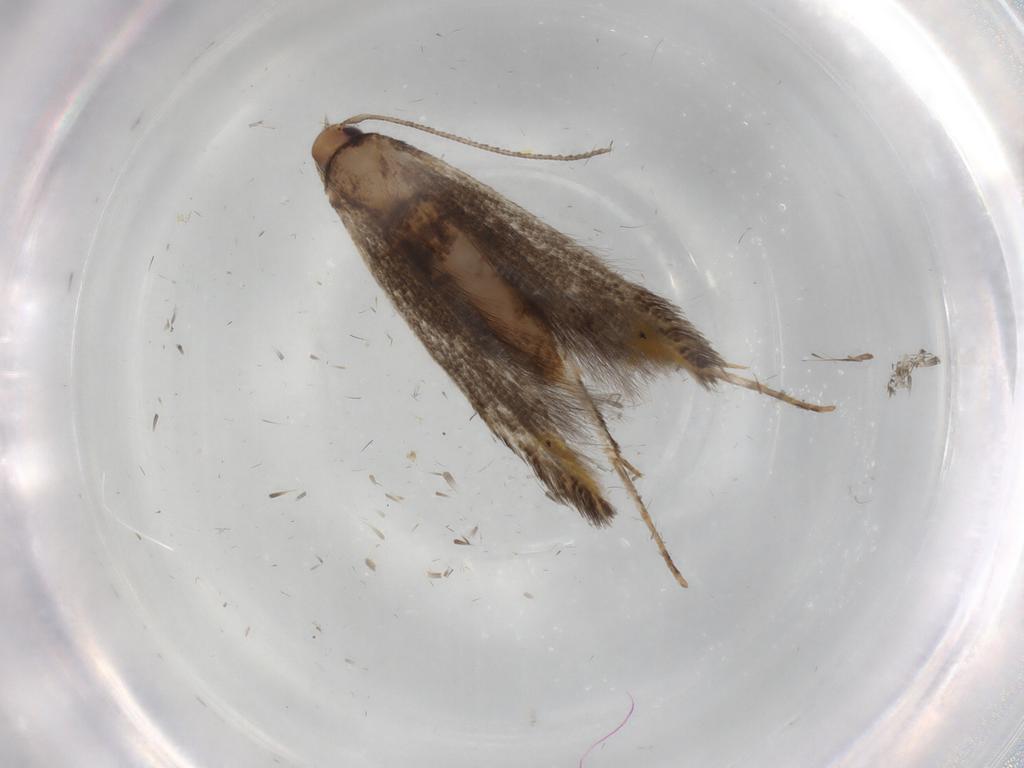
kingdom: Animalia
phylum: Arthropoda
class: Insecta
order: Lepidoptera
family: Cosmopterigidae
